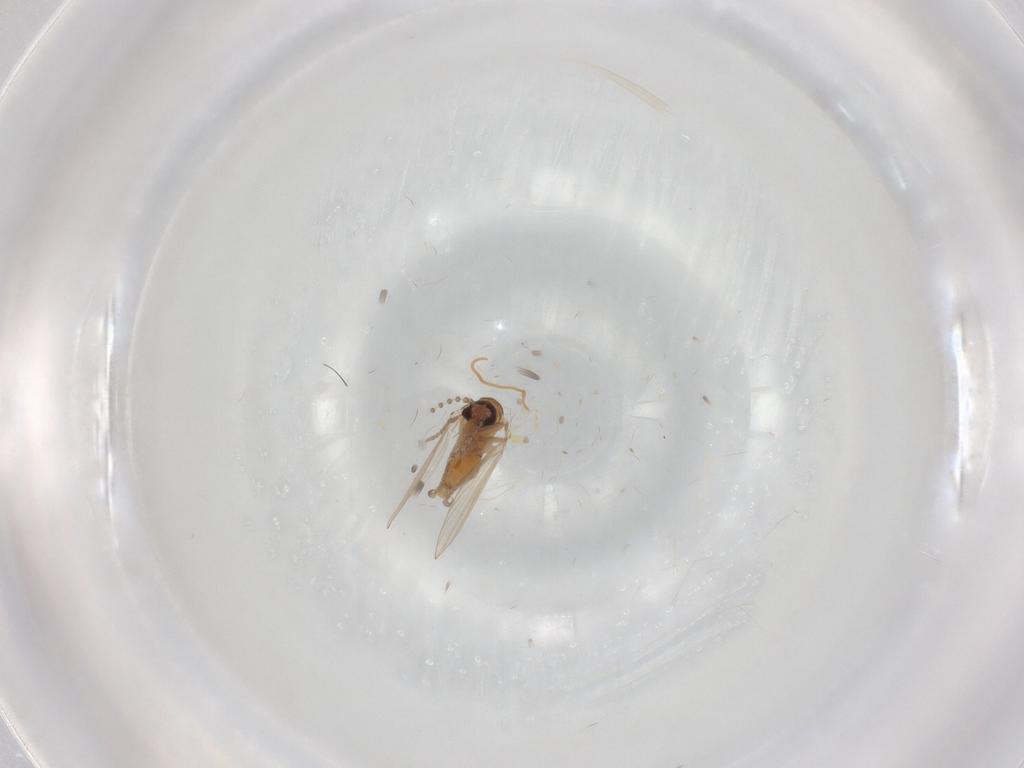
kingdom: Animalia
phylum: Arthropoda
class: Insecta
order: Diptera
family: Psychodidae
